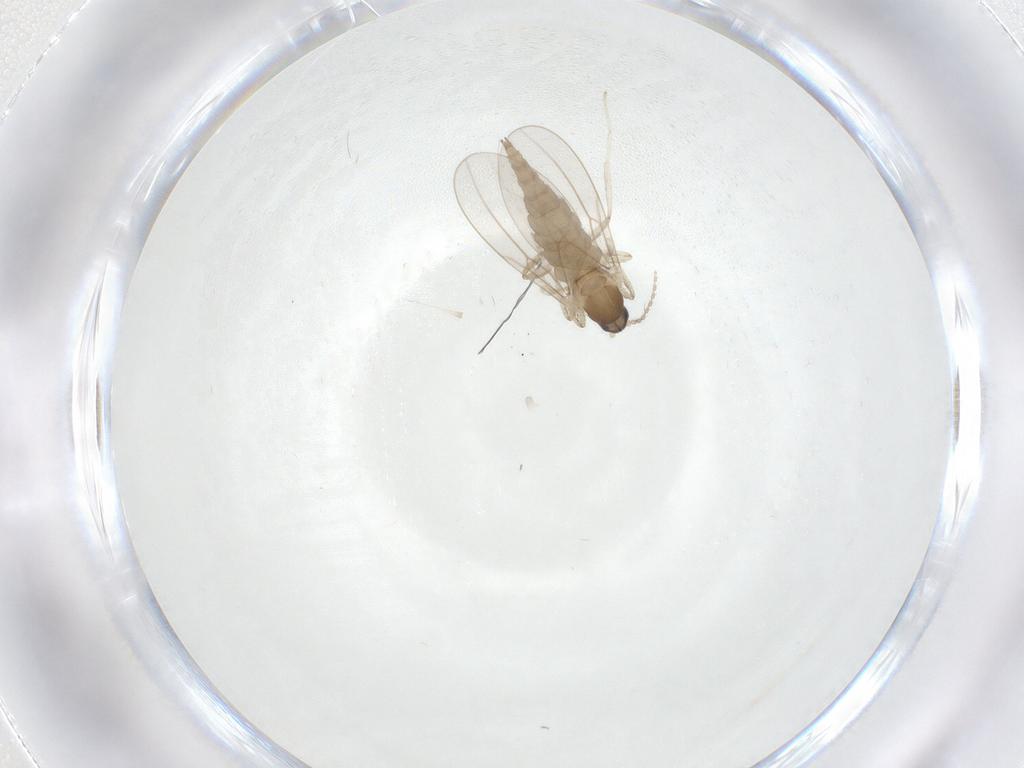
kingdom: Animalia
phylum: Arthropoda
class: Insecta
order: Diptera
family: Cecidomyiidae
